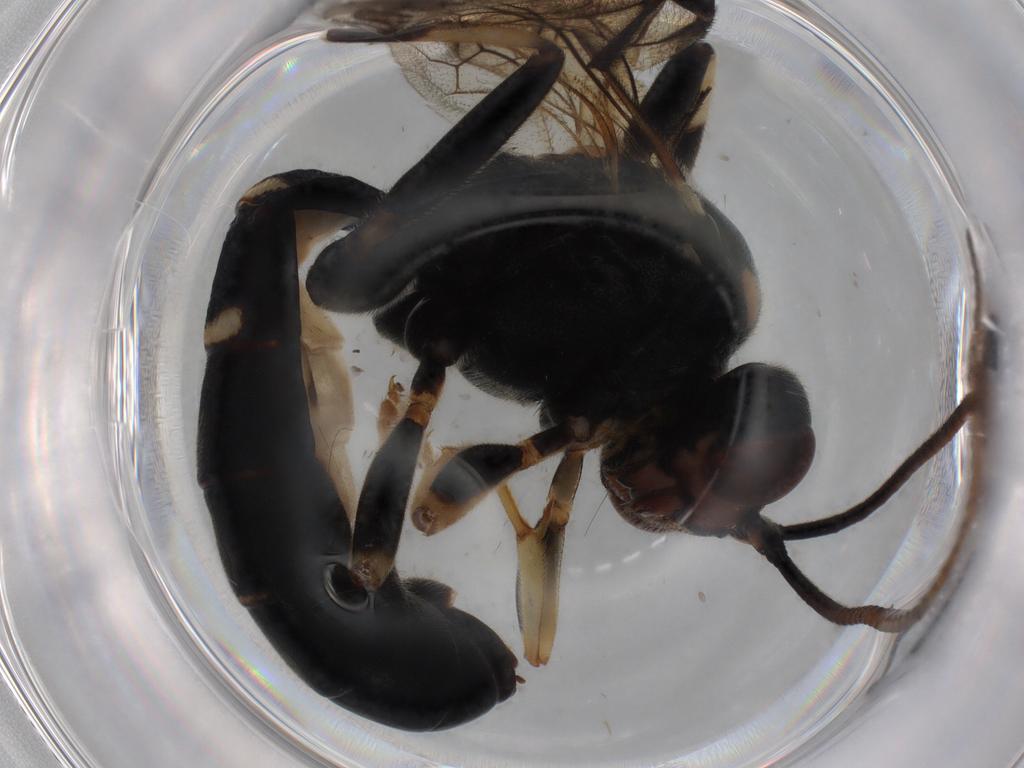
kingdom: Animalia
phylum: Arthropoda
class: Insecta
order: Hymenoptera
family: Ichneumonidae
